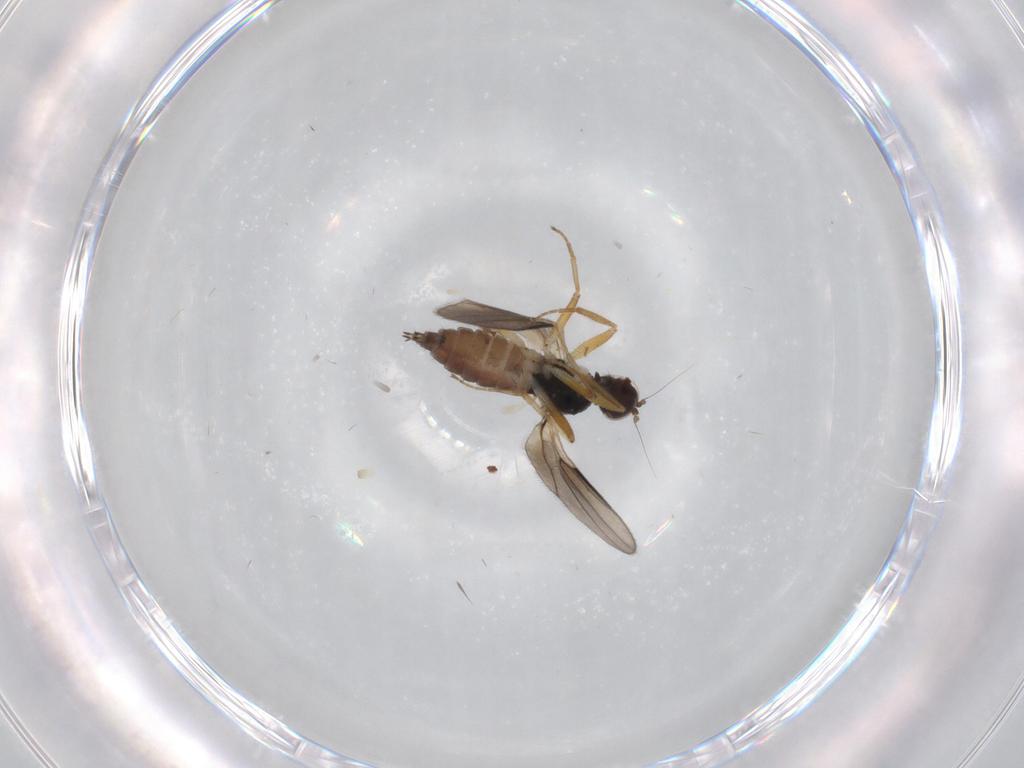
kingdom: Animalia
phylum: Arthropoda
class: Insecta
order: Diptera
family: Hybotidae
